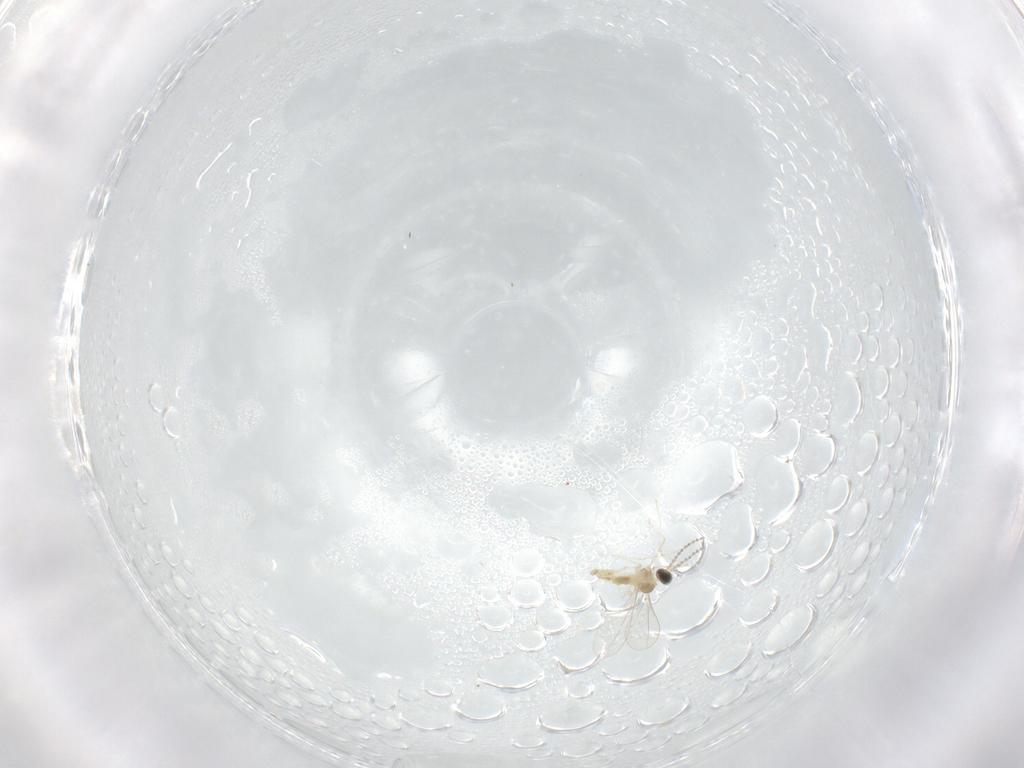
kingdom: Animalia
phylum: Arthropoda
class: Insecta
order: Diptera
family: Cecidomyiidae
